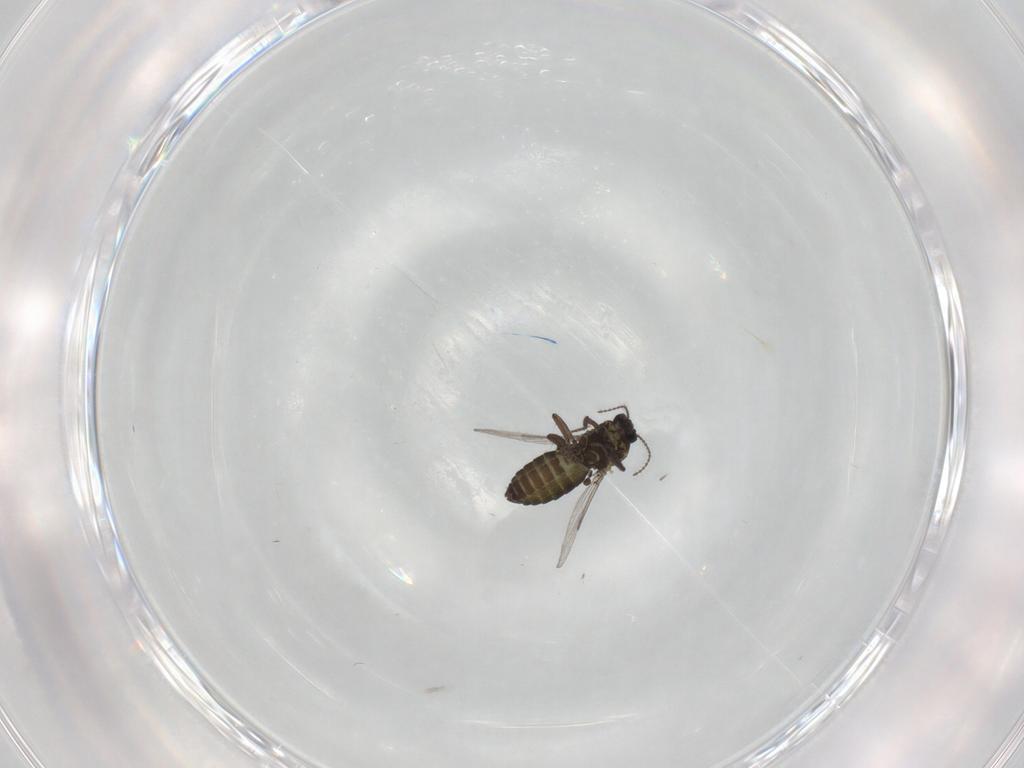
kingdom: Animalia
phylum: Arthropoda
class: Insecta
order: Diptera
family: Ceratopogonidae
